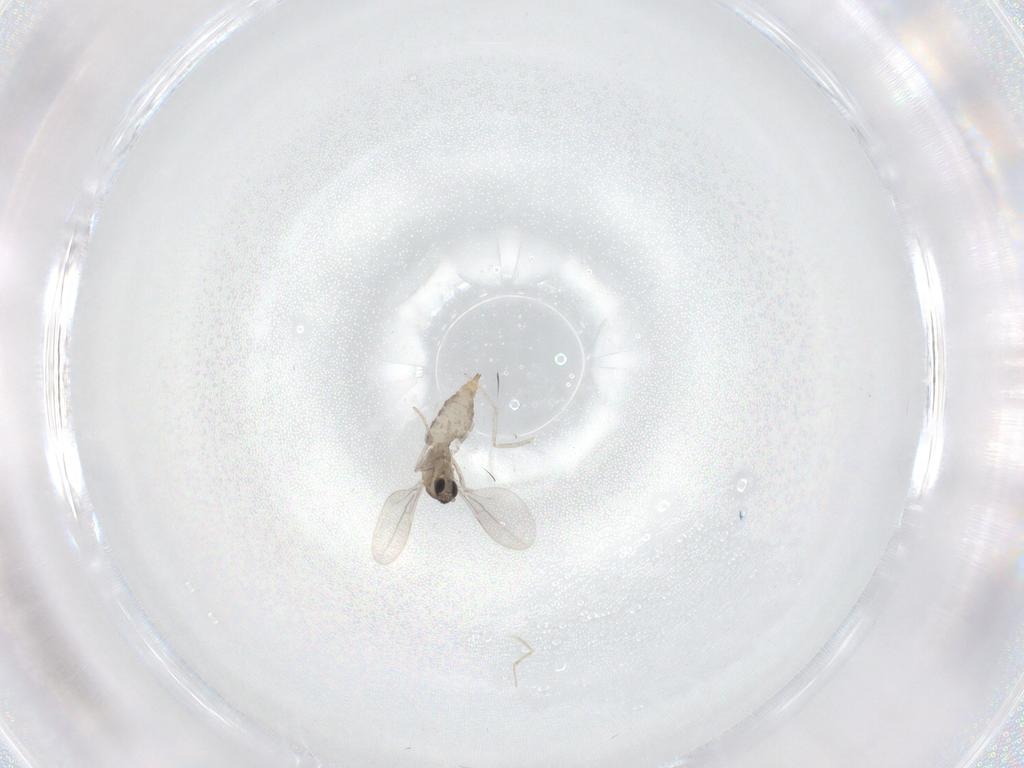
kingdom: Animalia
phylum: Arthropoda
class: Insecta
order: Diptera
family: Cecidomyiidae
